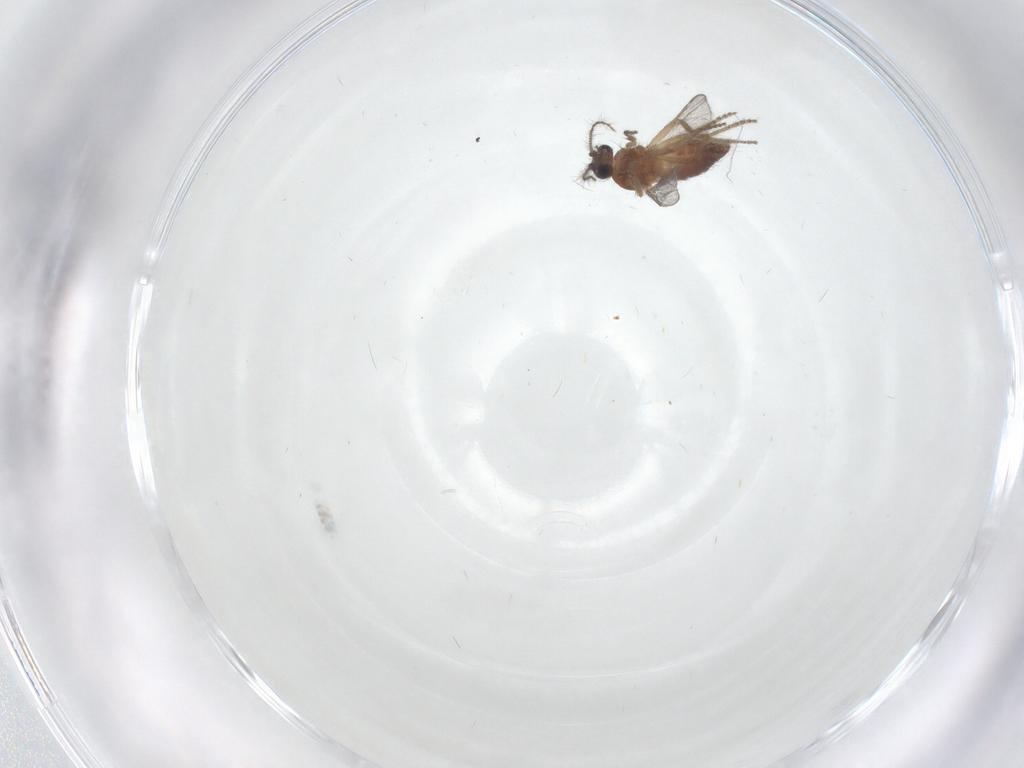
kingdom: Animalia
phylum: Arthropoda
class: Insecta
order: Diptera
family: Ceratopogonidae
